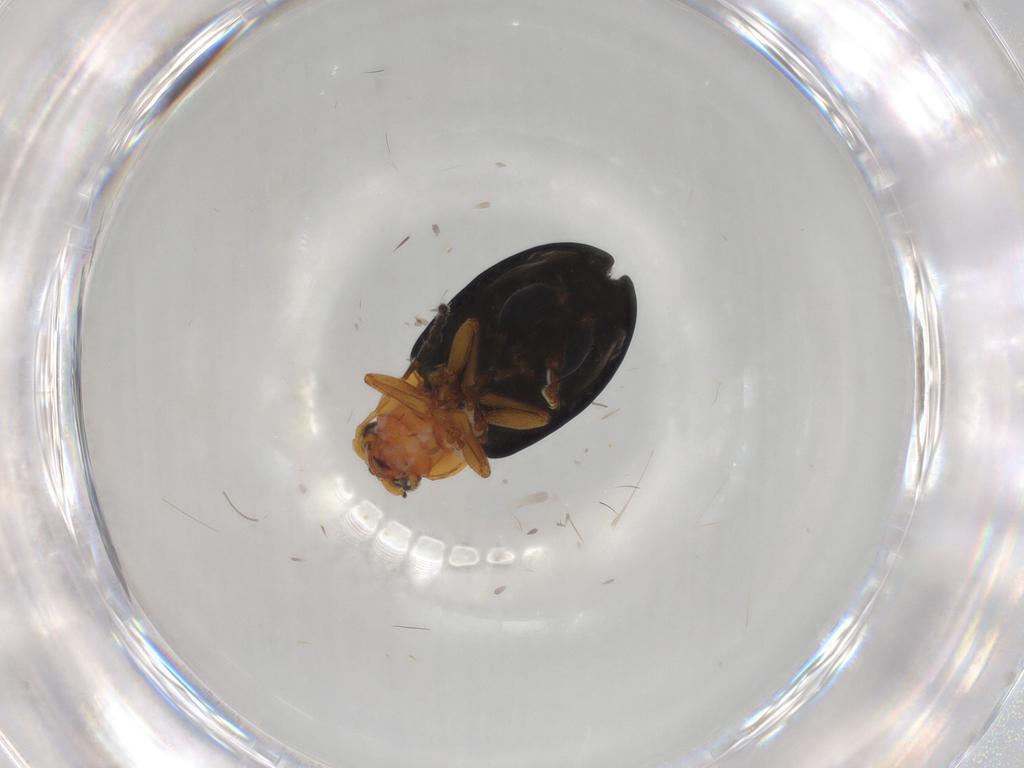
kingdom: Animalia
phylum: Arthropoda
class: Insecta
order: Coleoptera
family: Chrysomelidae
